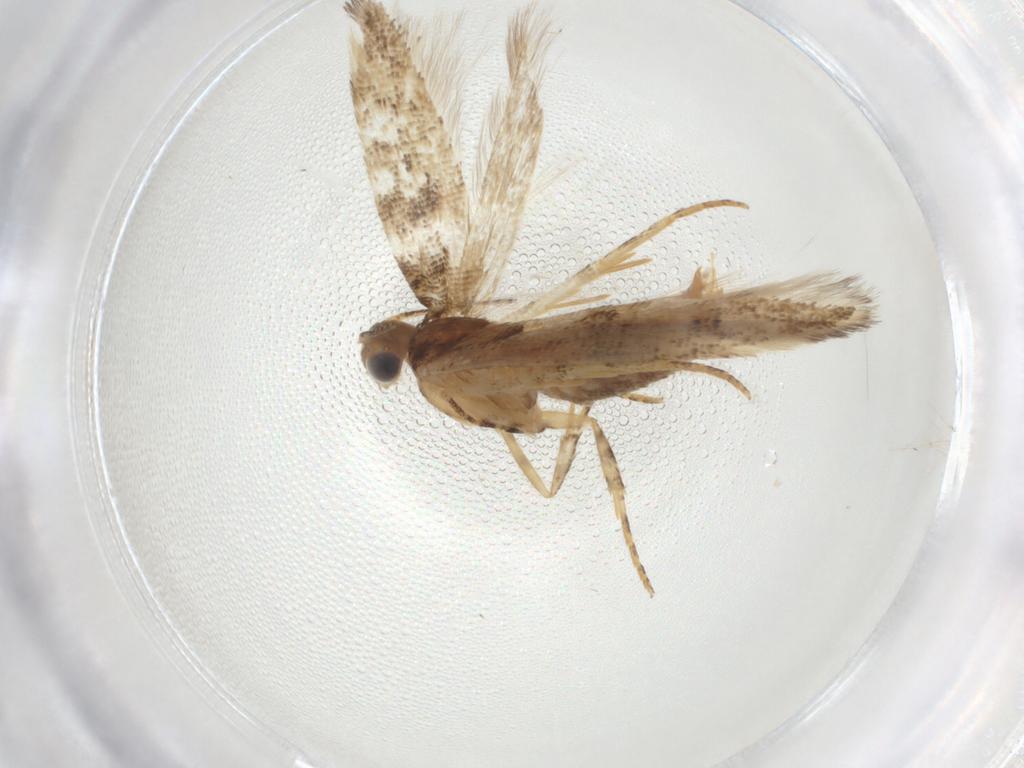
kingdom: Animalia
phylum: Arthropoda
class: Insecta
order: Lepidoptera
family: Gelechiidae
